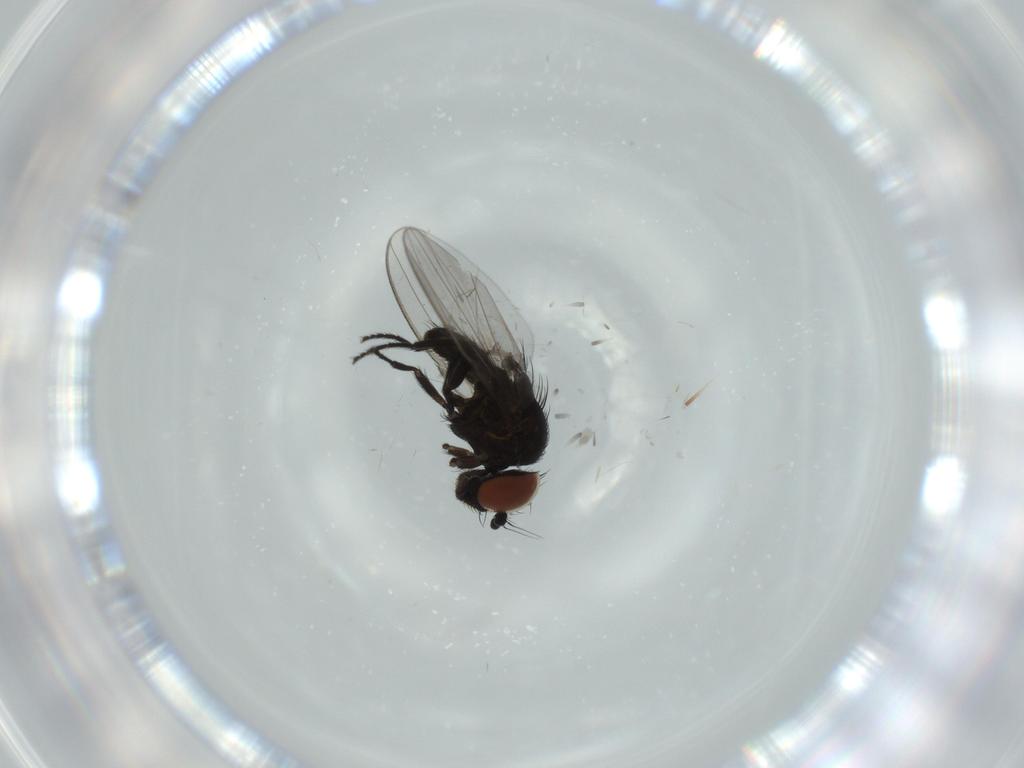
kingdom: Animalia
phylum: Arthropoda
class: Insecta
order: Diptera
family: Milichiidae
